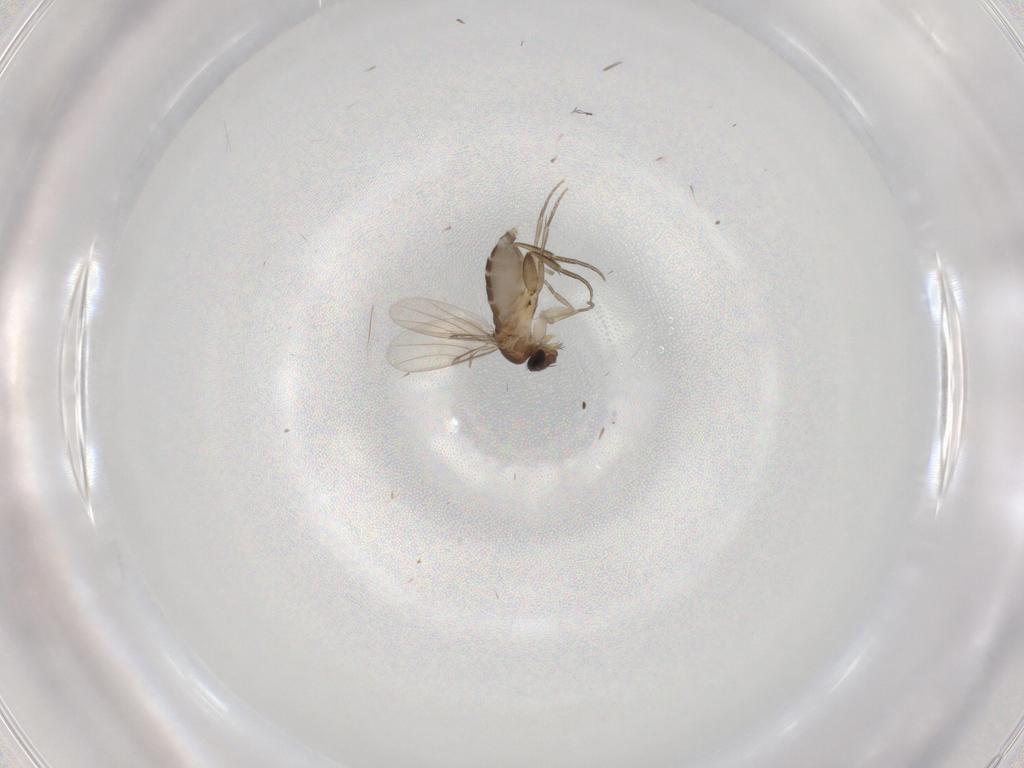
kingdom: Animalia
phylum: Arthropoda
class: Insecta
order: Diptera
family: Phoridae
